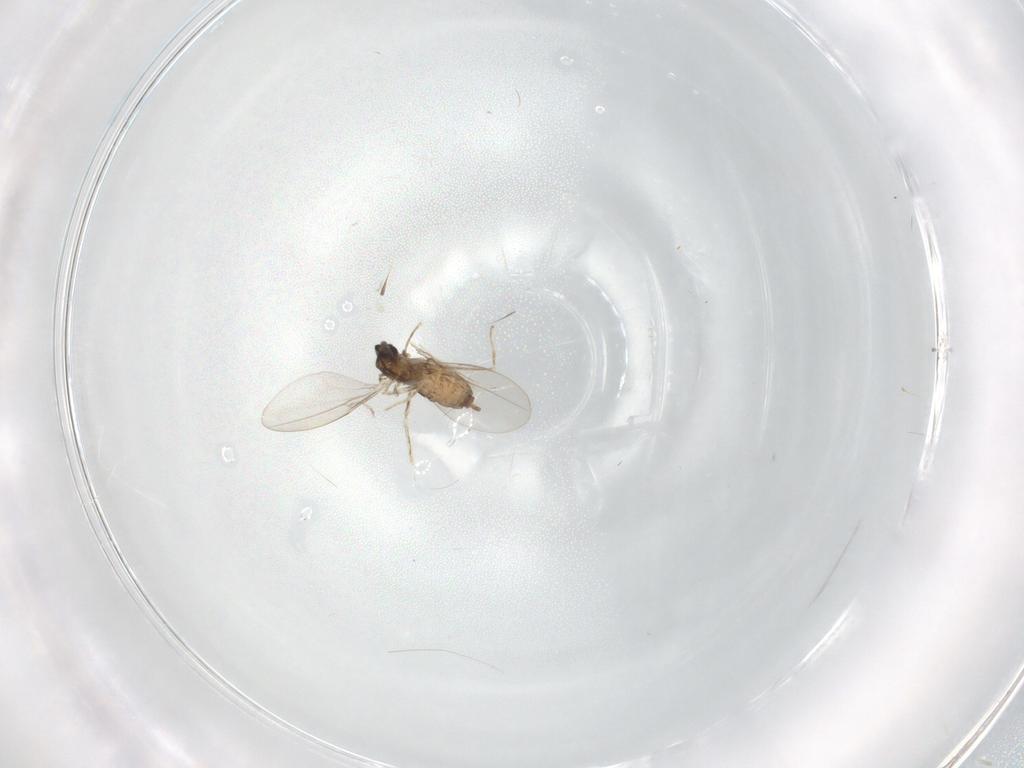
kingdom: Animalia
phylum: Arthropoda
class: Insecta
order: Diptera
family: Cecidomyiidae
